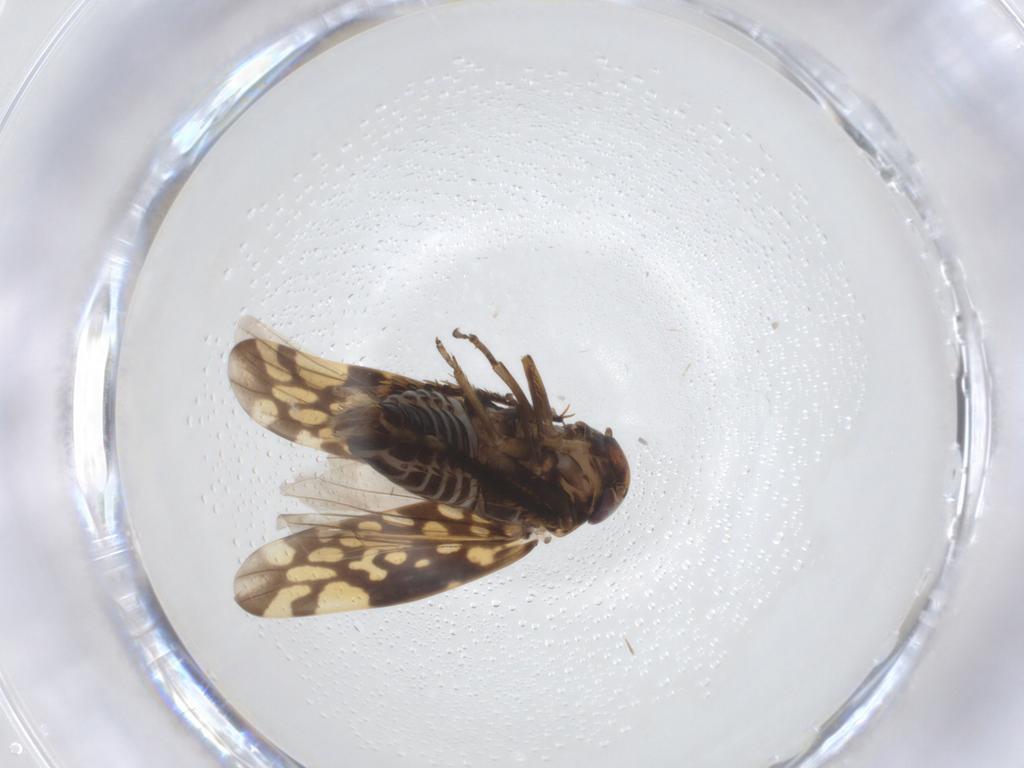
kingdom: Animalia
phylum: Arthropoda
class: Insecta
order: Hemiptera
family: Cicadellidae
